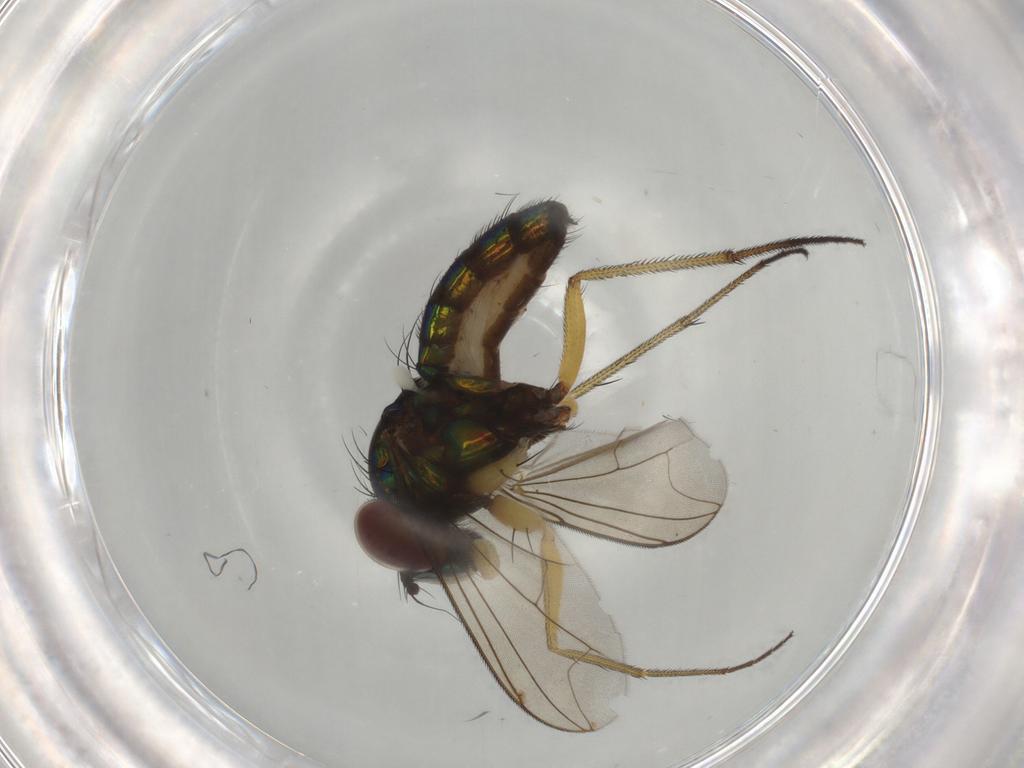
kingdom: Animalia
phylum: Arthropoda
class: Insecta
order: Diptera
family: Dolichopodidae
